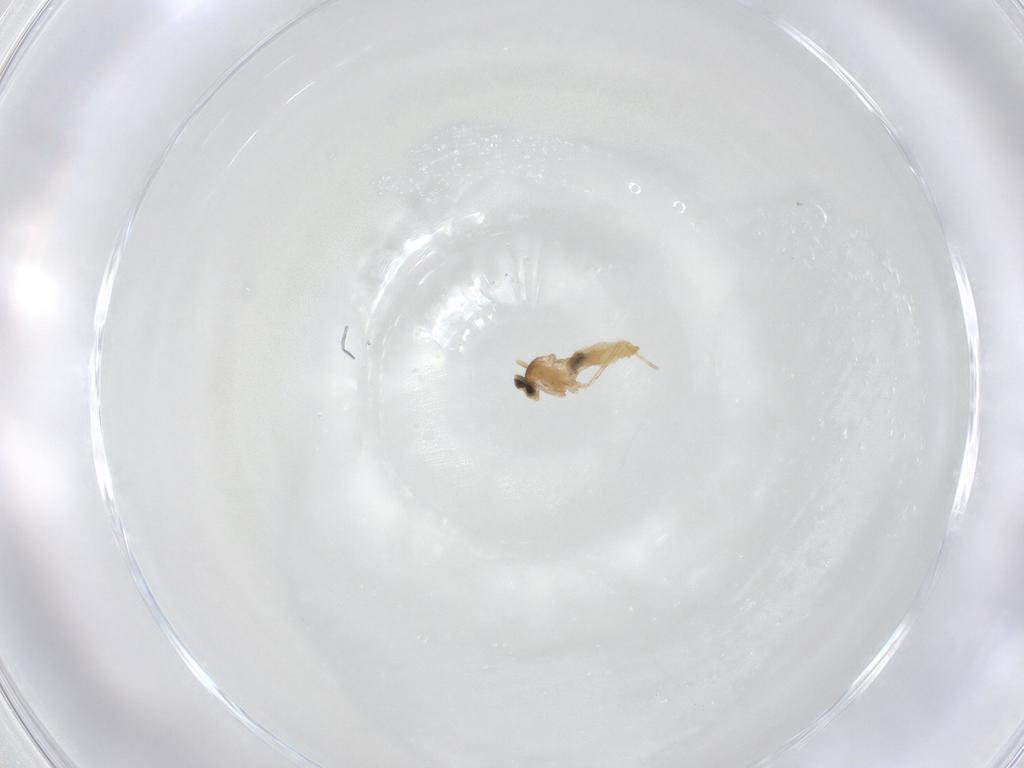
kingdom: Animalia
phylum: Arthropoda
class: Insecta
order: Diptera
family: Cecidomyiidae
